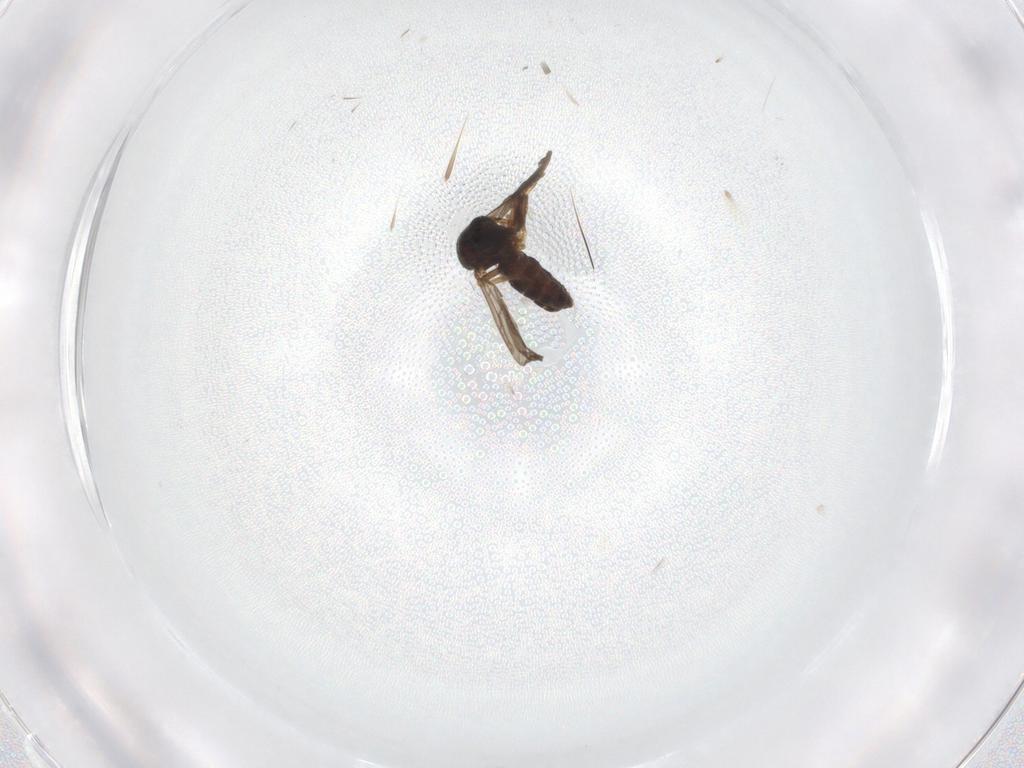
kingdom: Animalia
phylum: Arthropoda
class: Insecta
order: Diptera
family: Ceratopogonidae
